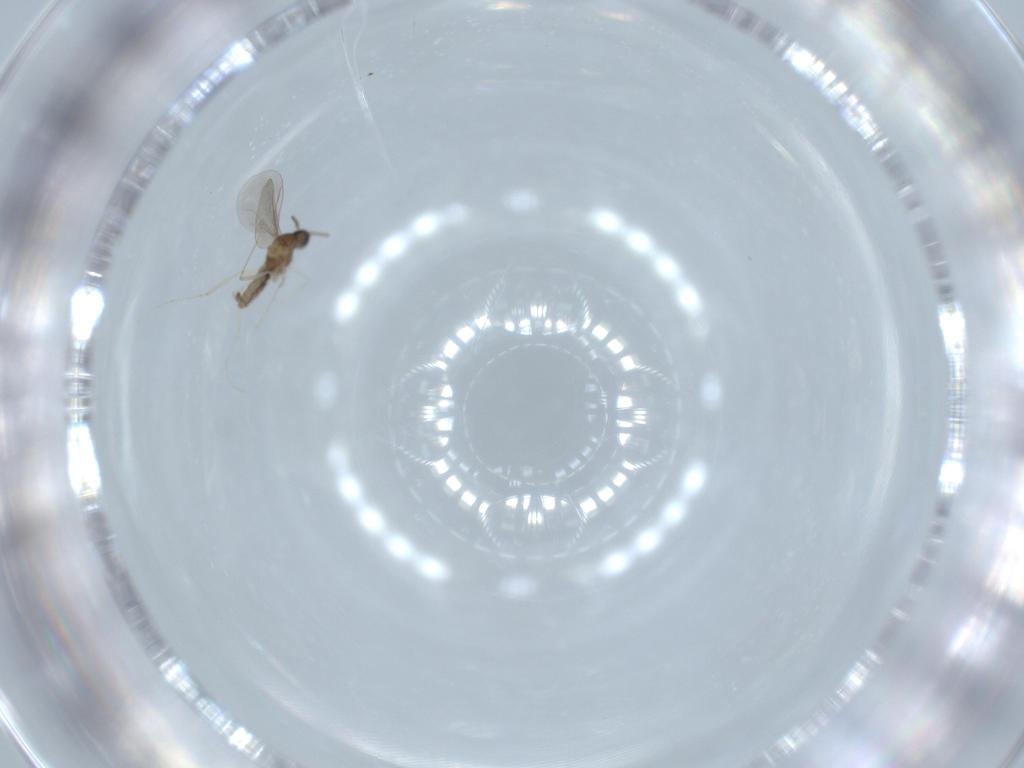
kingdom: Animalia
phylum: Arthropoda
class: Insecta
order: Diptera
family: Cecidomyiidae
